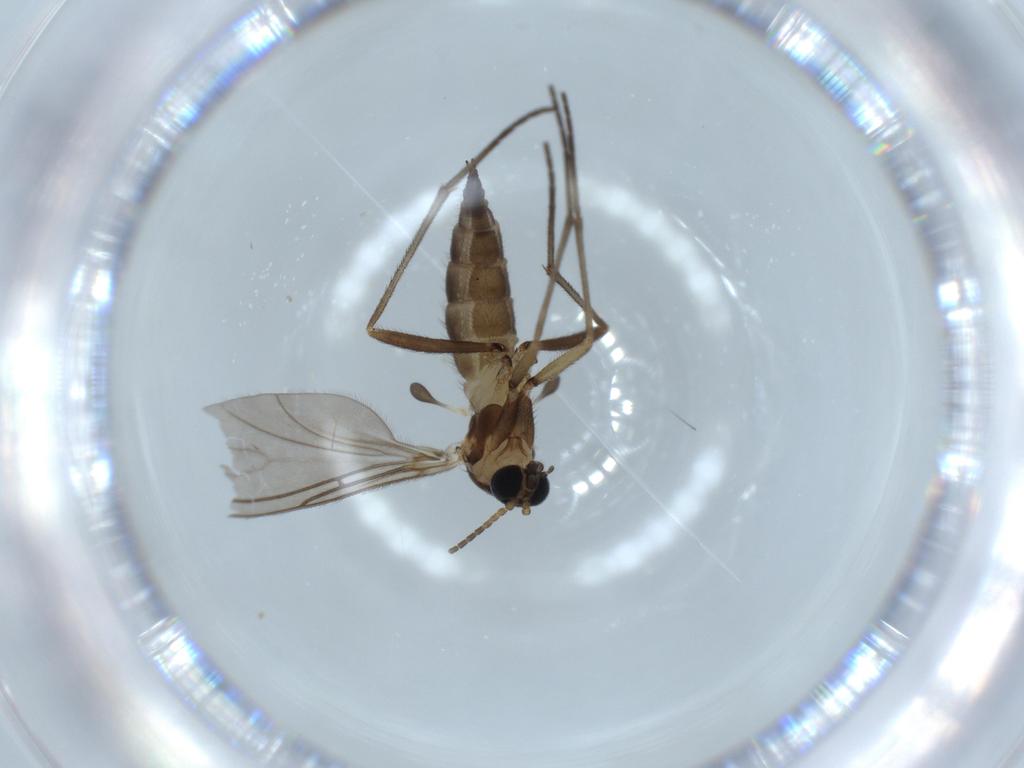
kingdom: Animalia
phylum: Arthropoda
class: Insecta
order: Diptera
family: Sciaridae
